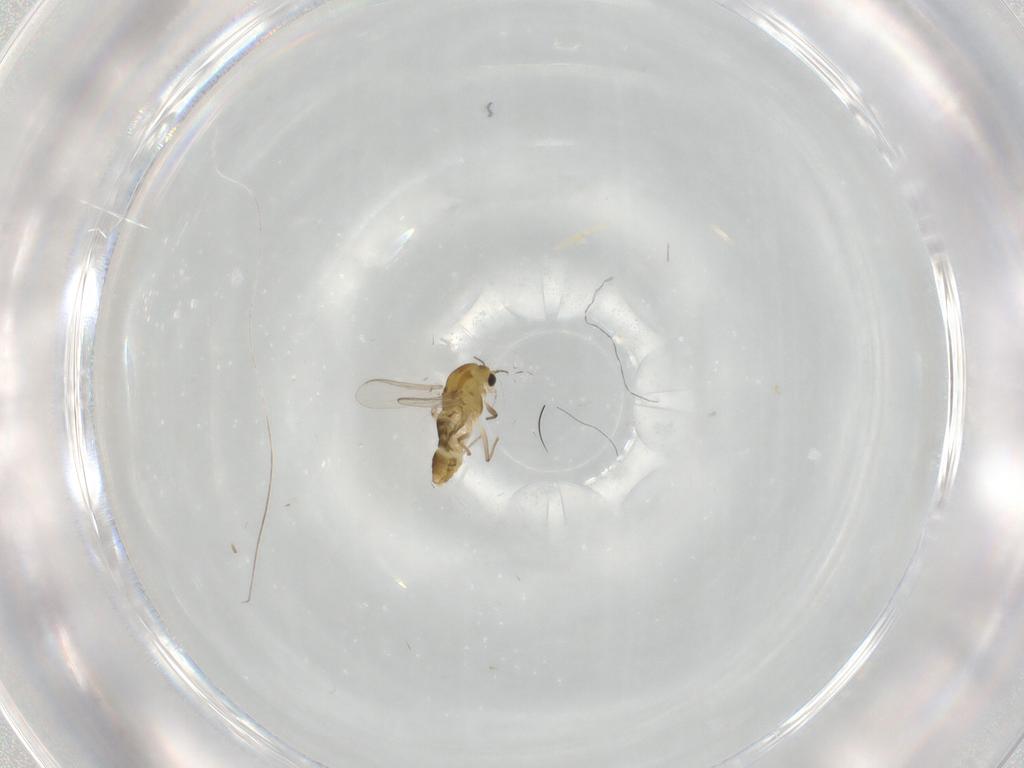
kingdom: Animalia
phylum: Arthropoda
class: Insecta
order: Diptera
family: Chironomidae
